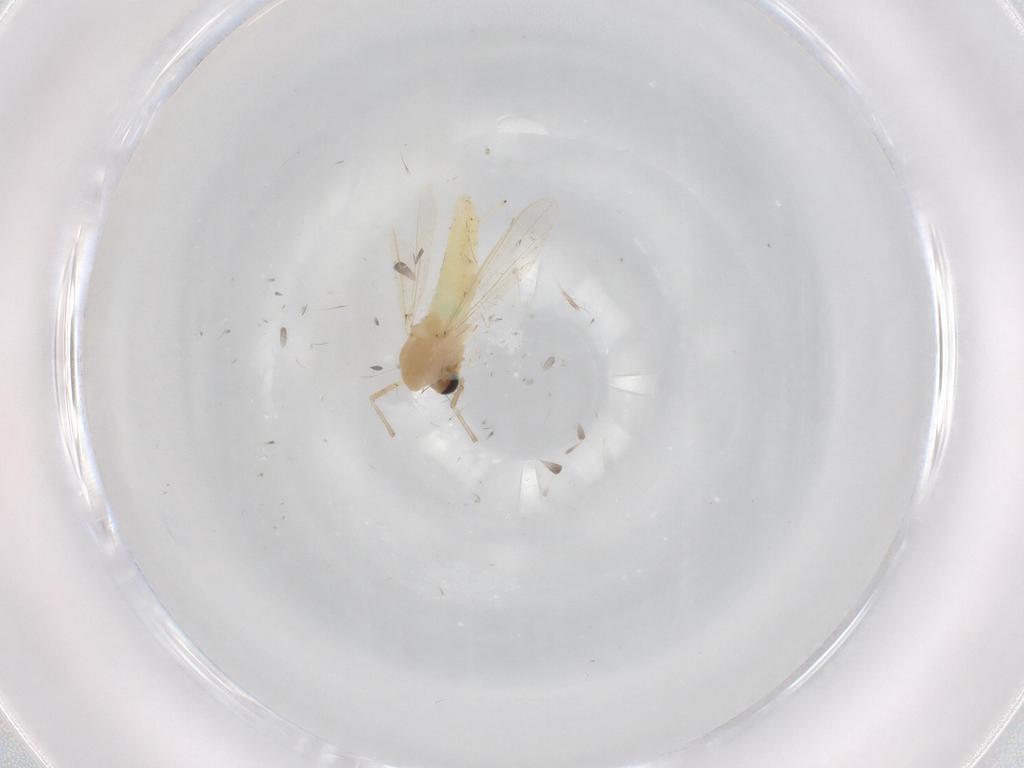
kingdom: Animalia
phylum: Arthropoda
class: Insecta
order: Diptera
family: Chironomidae
